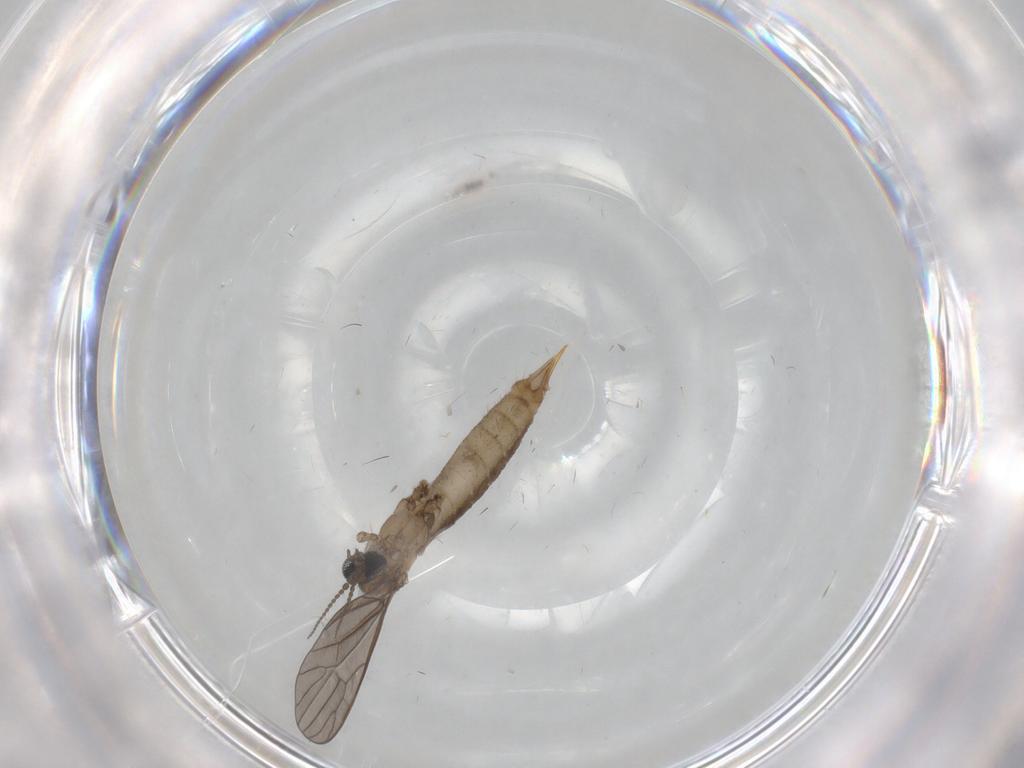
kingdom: Animalia
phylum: Arthropoda
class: Insecta
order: Diptera
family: Limoniidae
